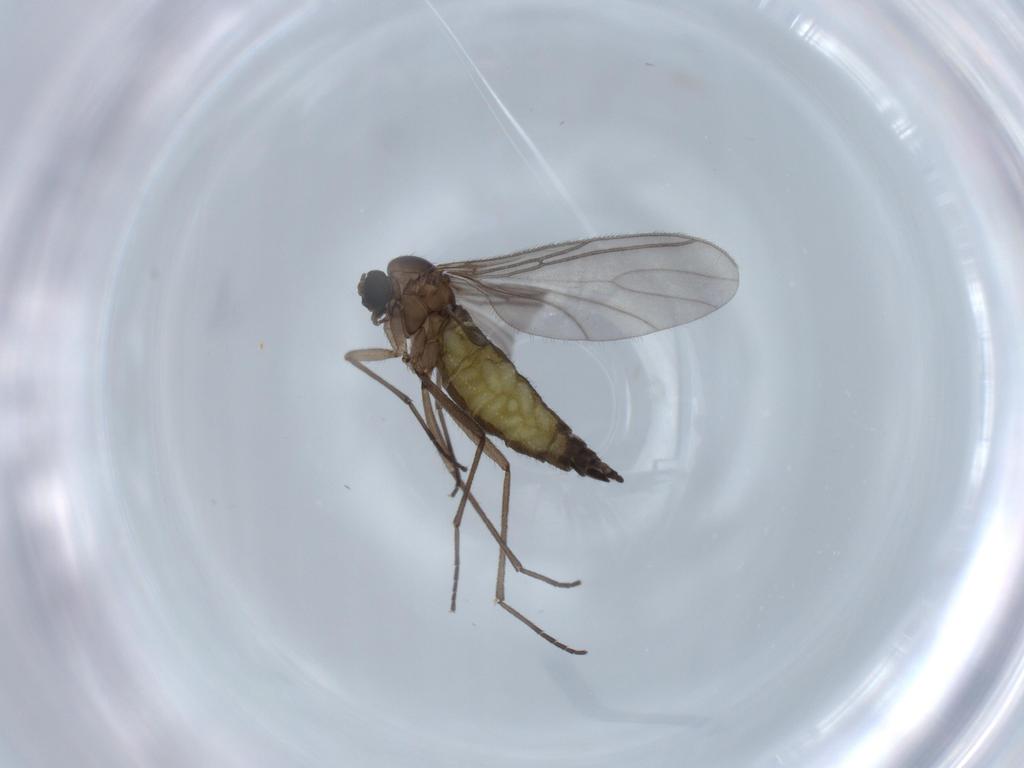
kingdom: Animalia
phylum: Arthropoda
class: Insecta
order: Diptera
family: Sciaridae
